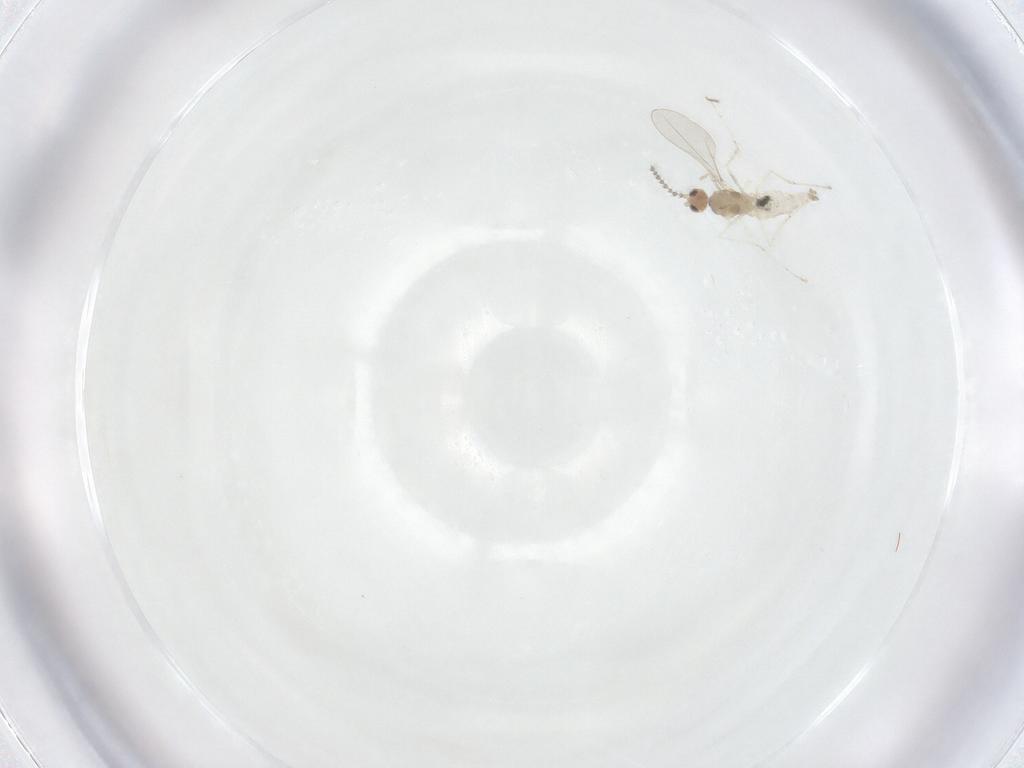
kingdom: Animalia
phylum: Arthropoda
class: Insecta
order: Diptera
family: Cecidomyiidae
